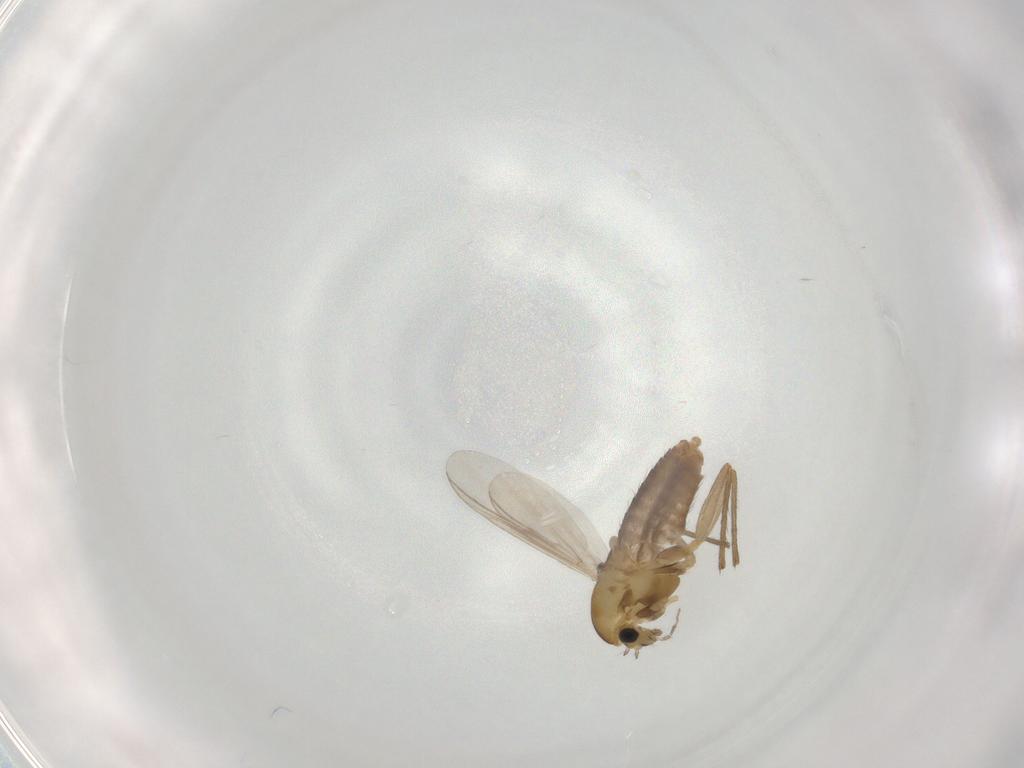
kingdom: Animalia
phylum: Arthropoda
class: Insecta
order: Diptera
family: Chironomidae
